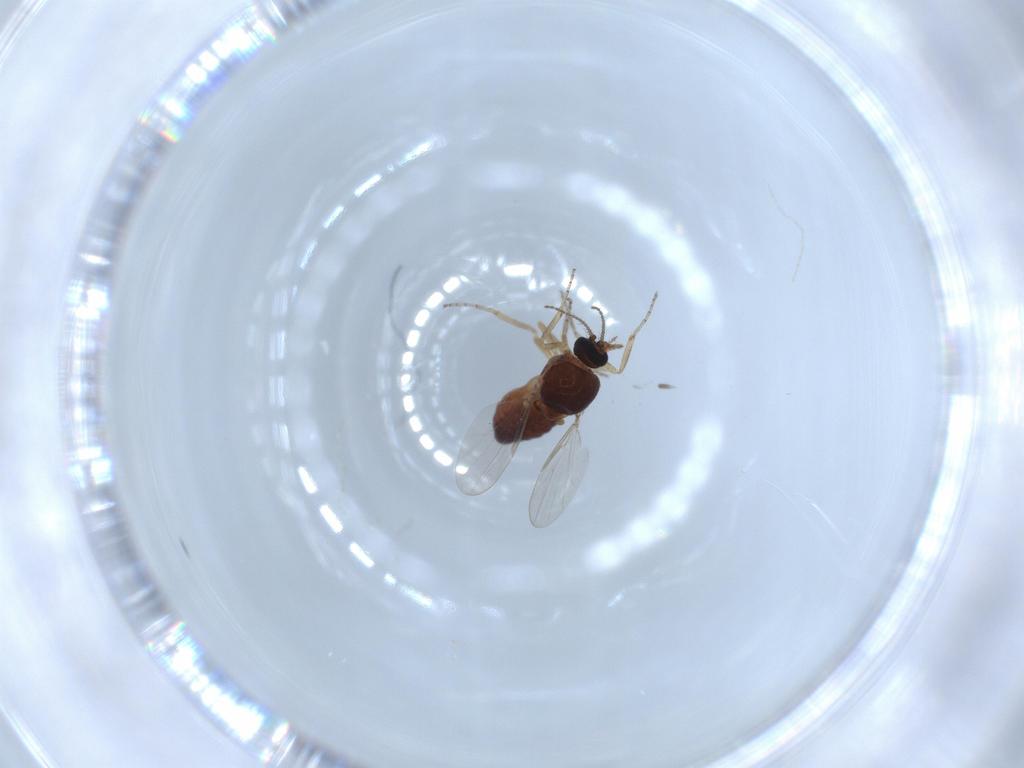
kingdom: Animalia
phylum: Arthropoda
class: Insecta
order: Diptera
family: Ceratopogonidae
